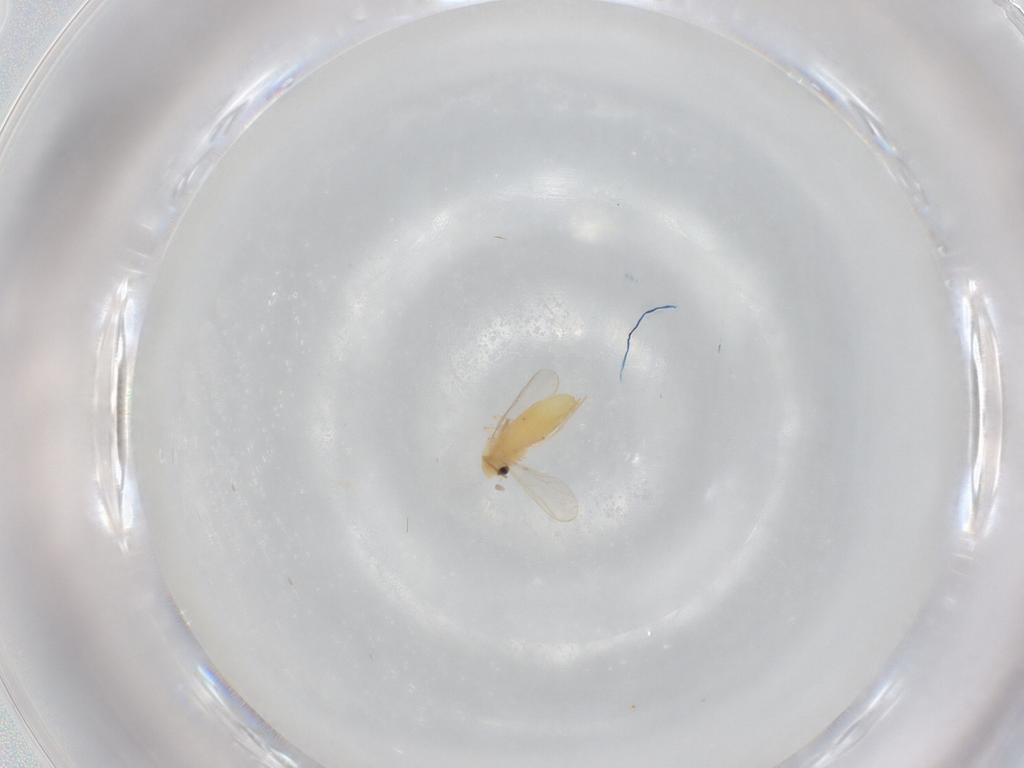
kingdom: Animalia
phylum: Arthropoda
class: Insecta
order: Diptera
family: Chironomidae
